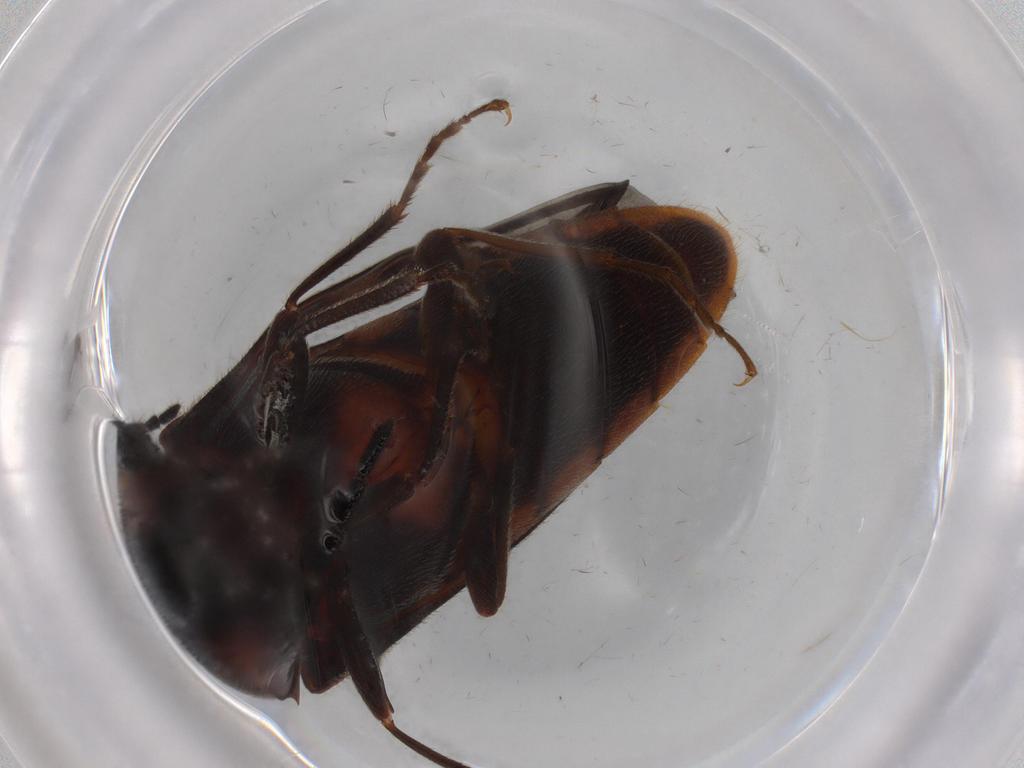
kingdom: Animalia
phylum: Arthropoda
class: Insecta
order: Coleoptera
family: Elateridae
